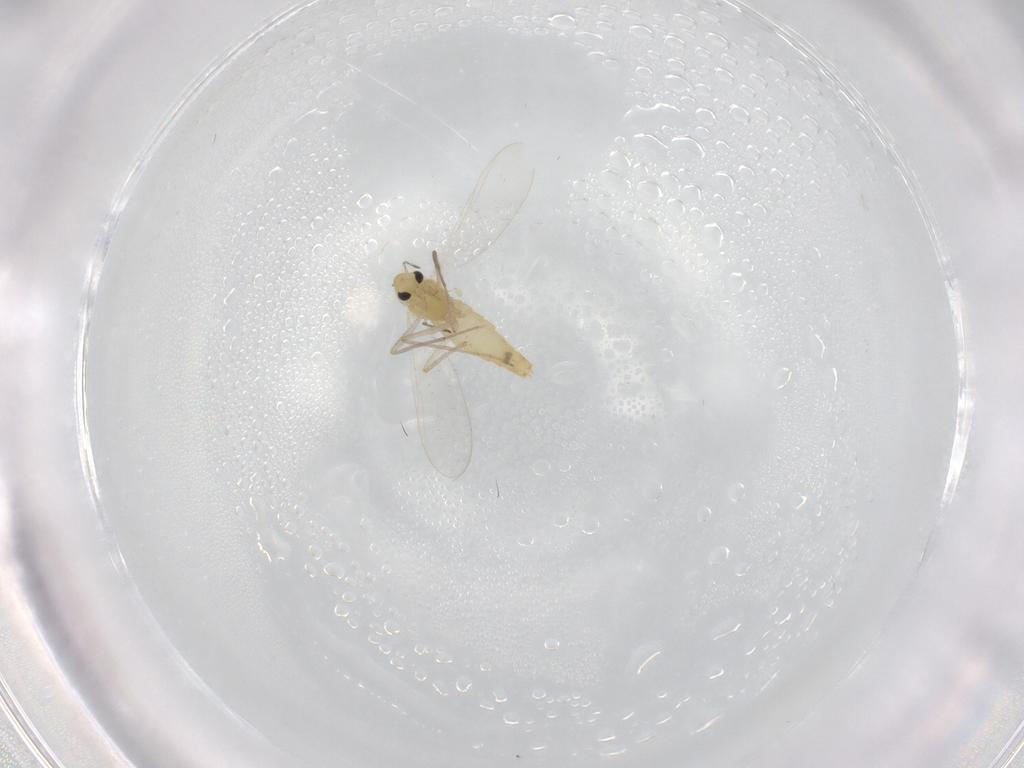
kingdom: Animalia
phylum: Arthropoda
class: Insecta
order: Diptera
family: Chironomidae
